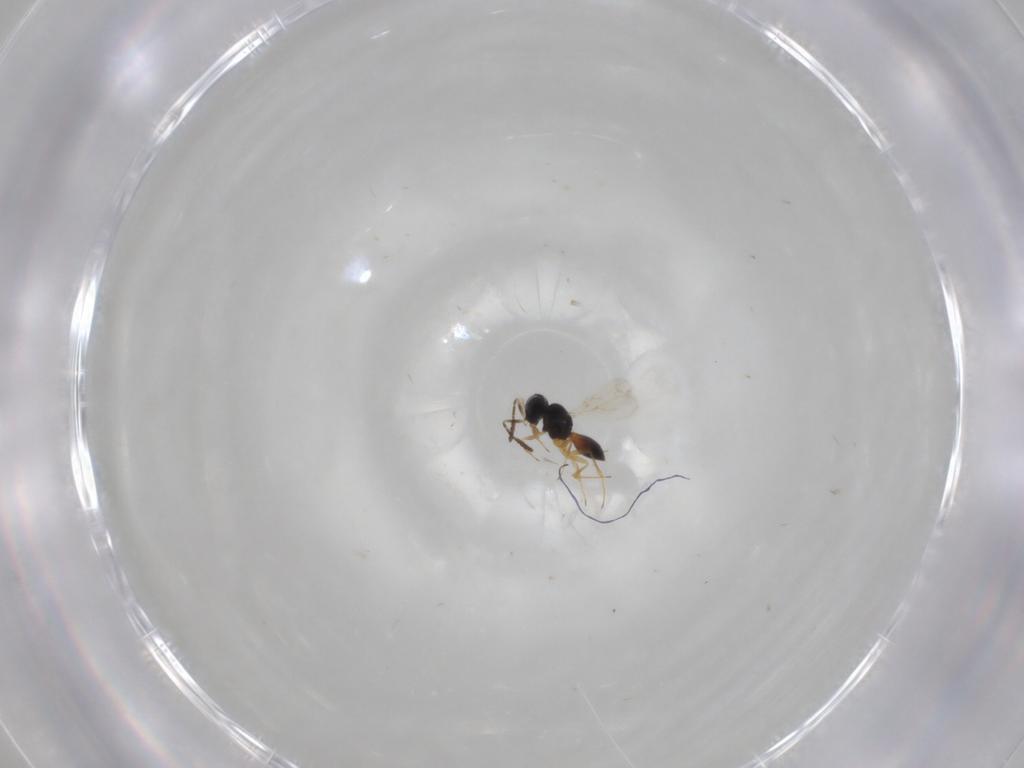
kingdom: Animalia
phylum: Arthropoda
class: Insecta
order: Hymenoptera
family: Scelionidae
